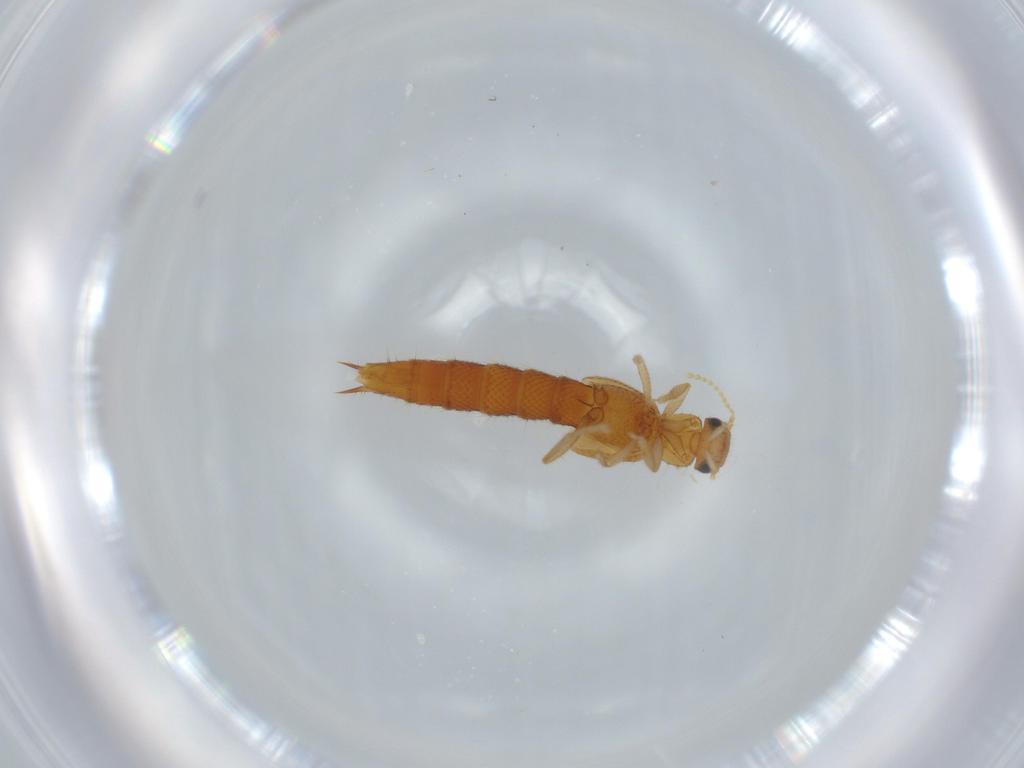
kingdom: Animalia
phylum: Arthropoda
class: Insecta
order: Coleoptera
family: Staphylinidae
